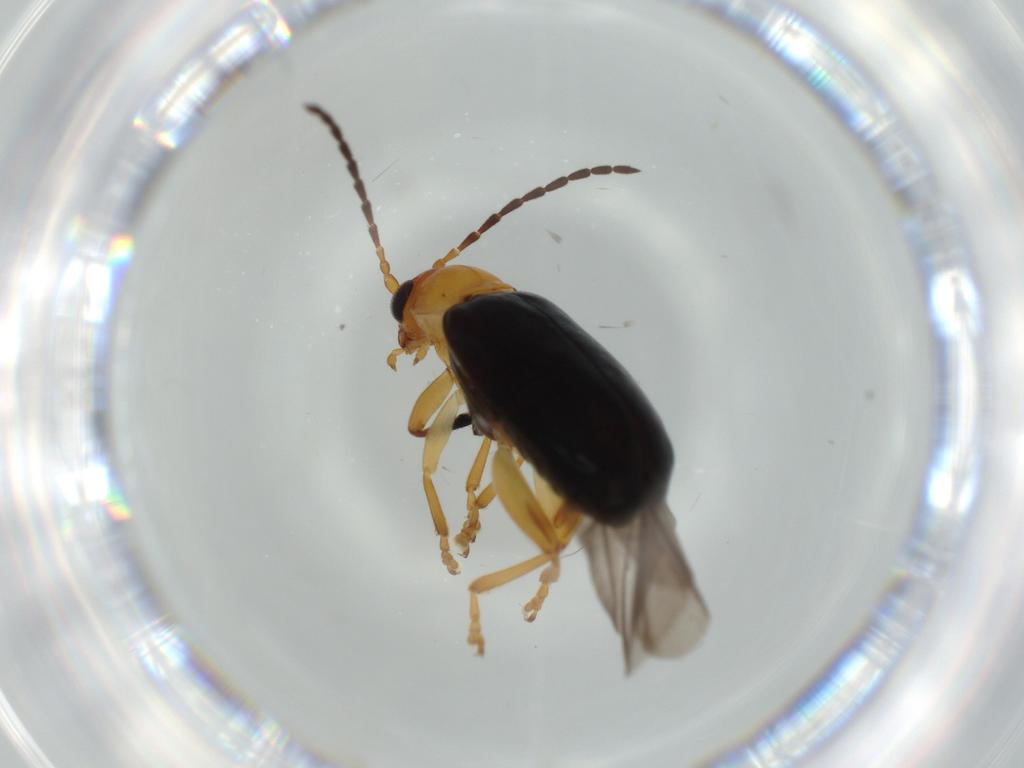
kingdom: Animalia
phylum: Arthropoda
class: Insecta
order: Coleoptera
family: Chrysomelidae
